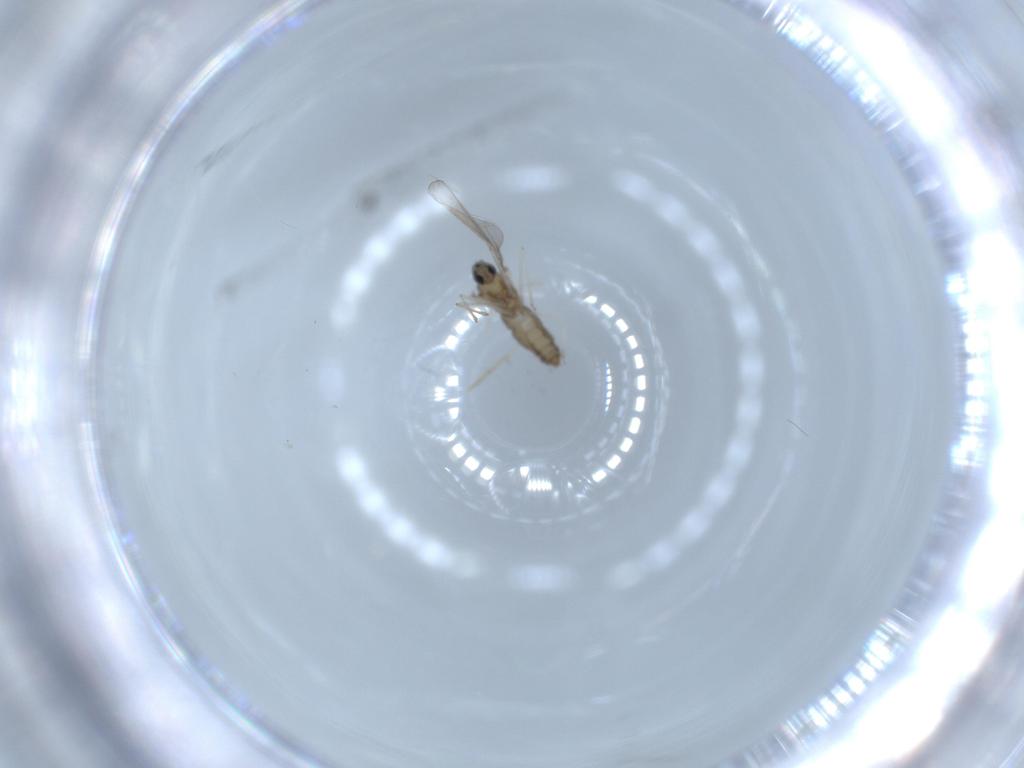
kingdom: Animalia
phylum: Arthropoda
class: Insecta
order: Diptera
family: Cecidomyiidae
